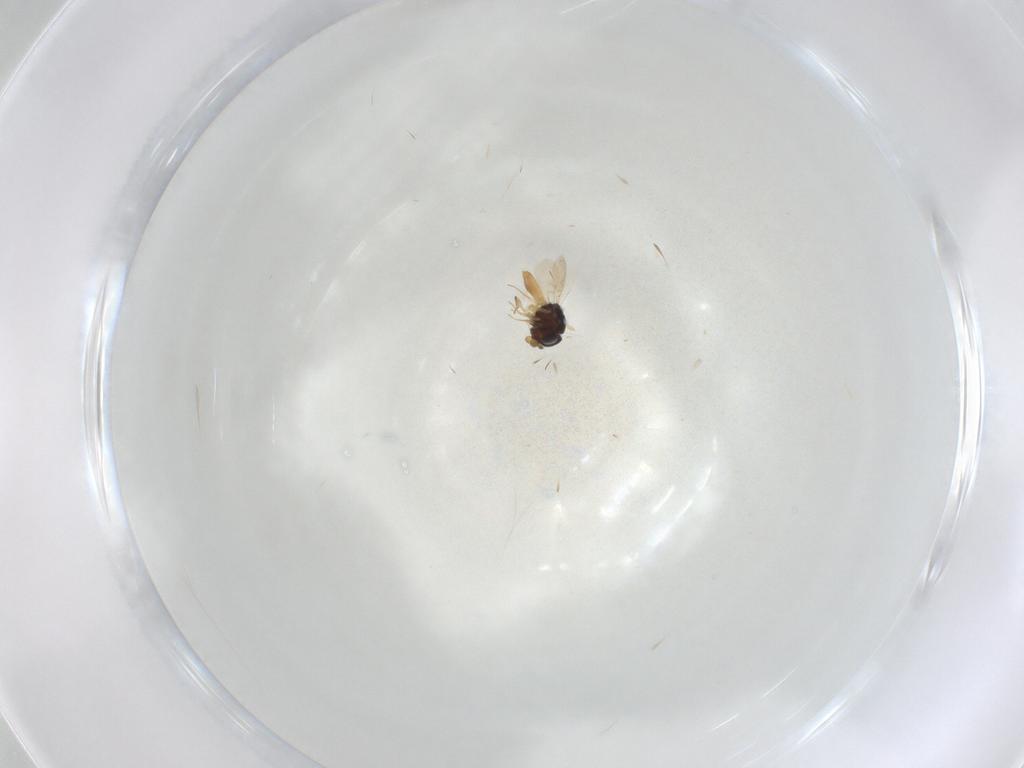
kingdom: Animalia
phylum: Arthropoda
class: Insecta
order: Hymenoptera
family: Scelionidae
